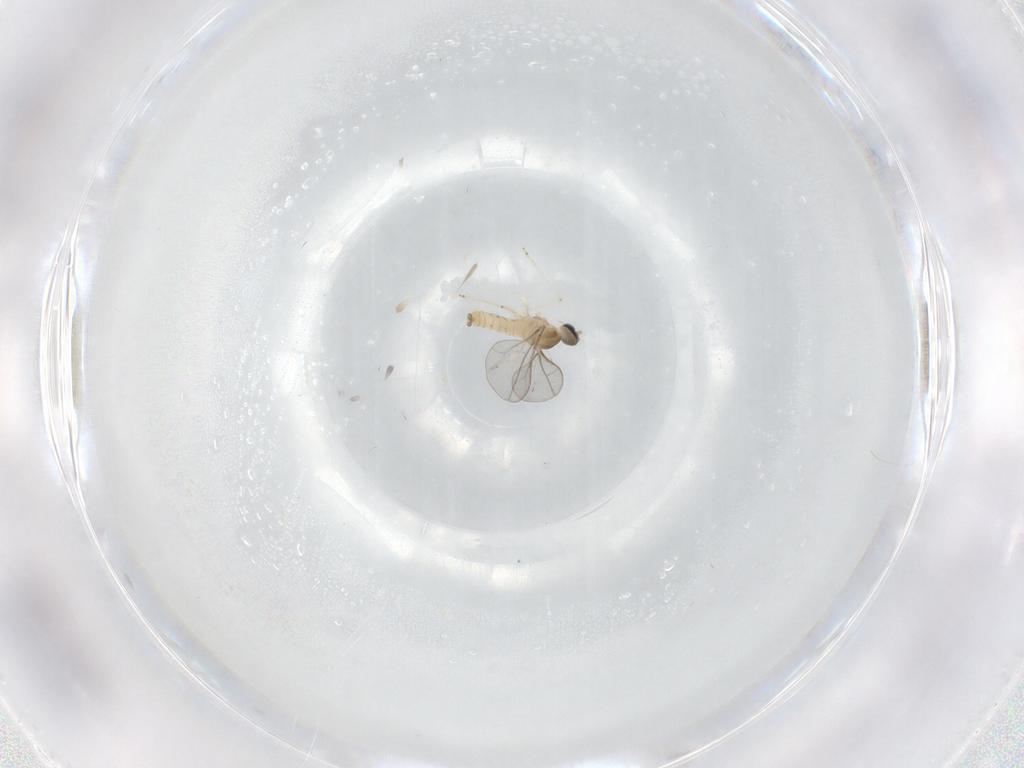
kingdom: Animalia
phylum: Arthropoda
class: Insecta
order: Diptera
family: Cecidomyiidae
